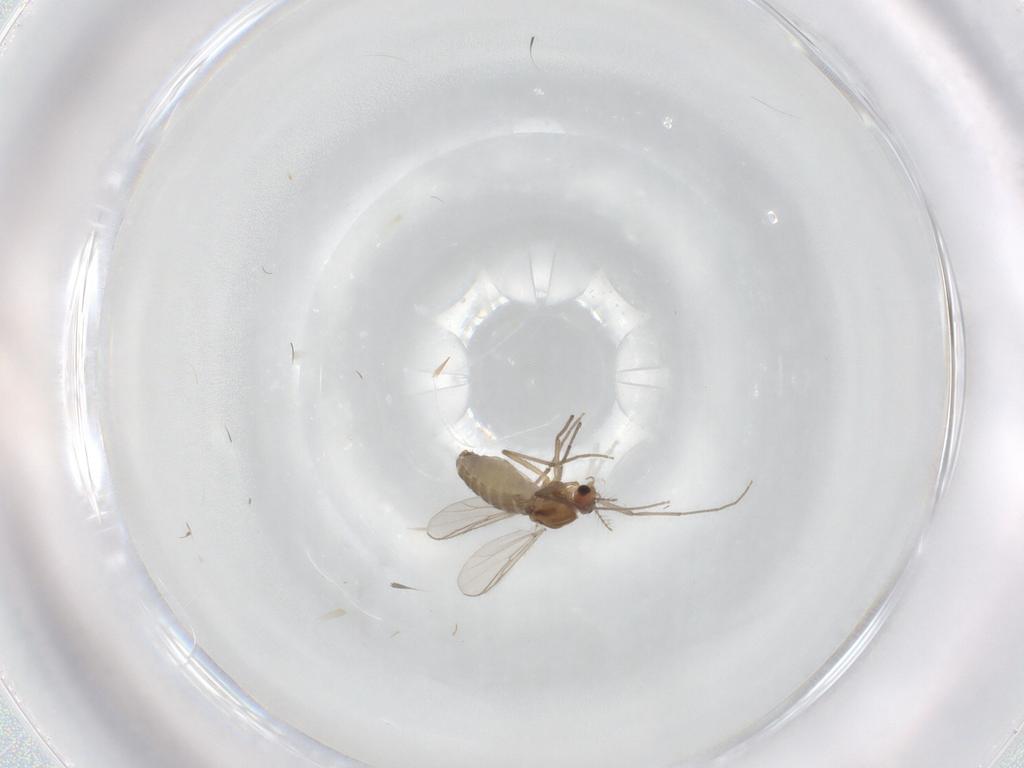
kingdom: Animalia
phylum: Arthropoda
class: Insecta
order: Diptera
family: Chironomidae
